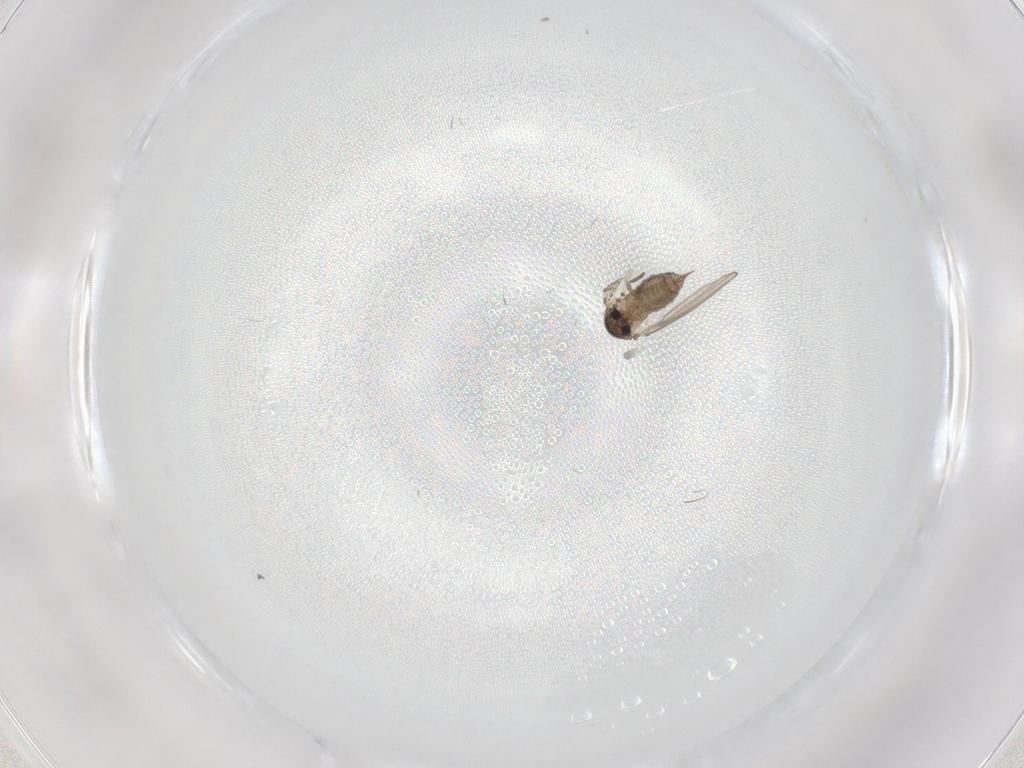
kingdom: Animalia
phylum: Arthropoda
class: Insecta
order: Diptera
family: Psychodidae
